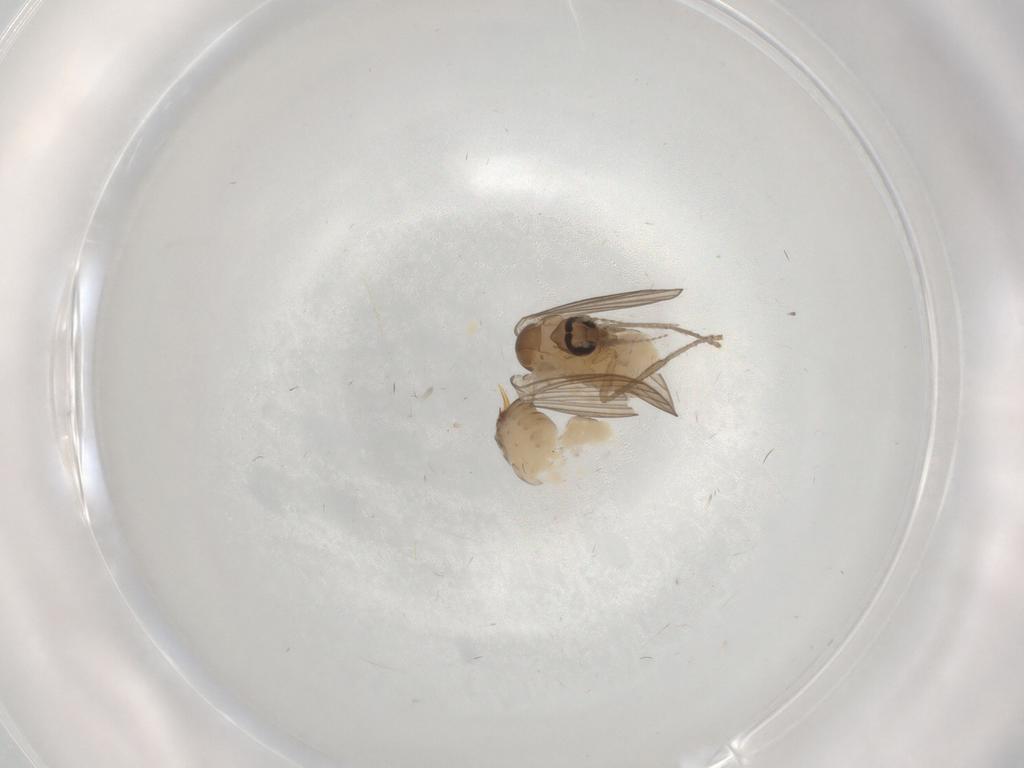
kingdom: Animalia
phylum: Arthropoda
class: Insecta
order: Diptera
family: Psychodidae
